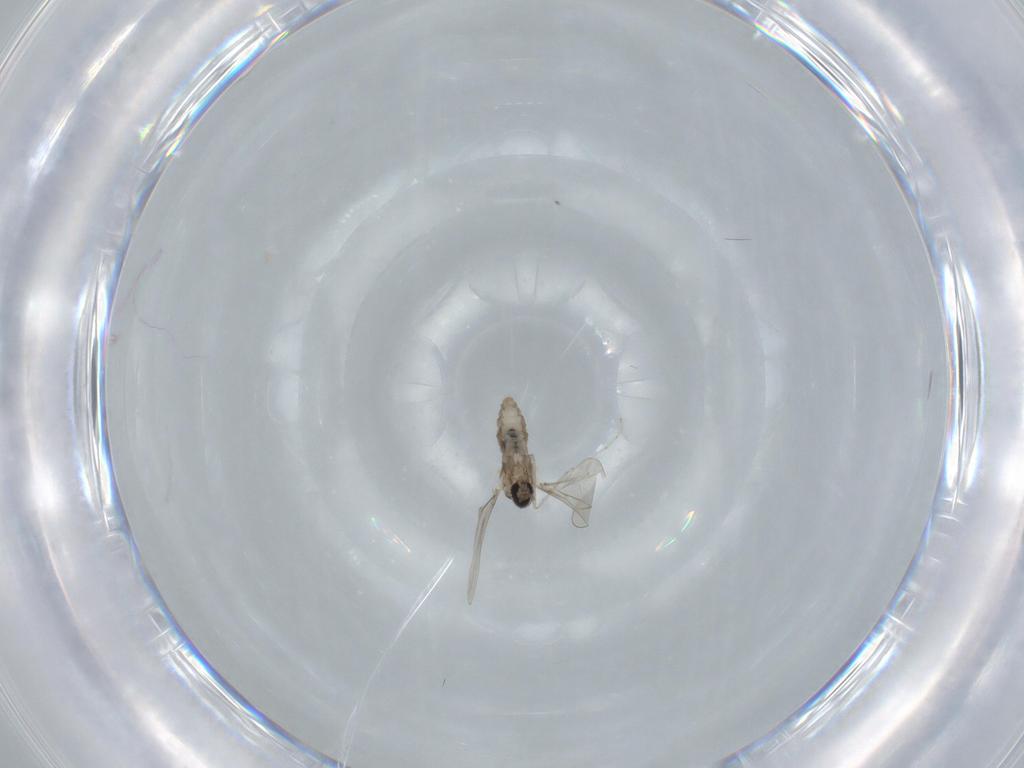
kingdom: Animalia
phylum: Arthropoda
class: Insecta
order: Diptera
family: Cecidomyiidae
